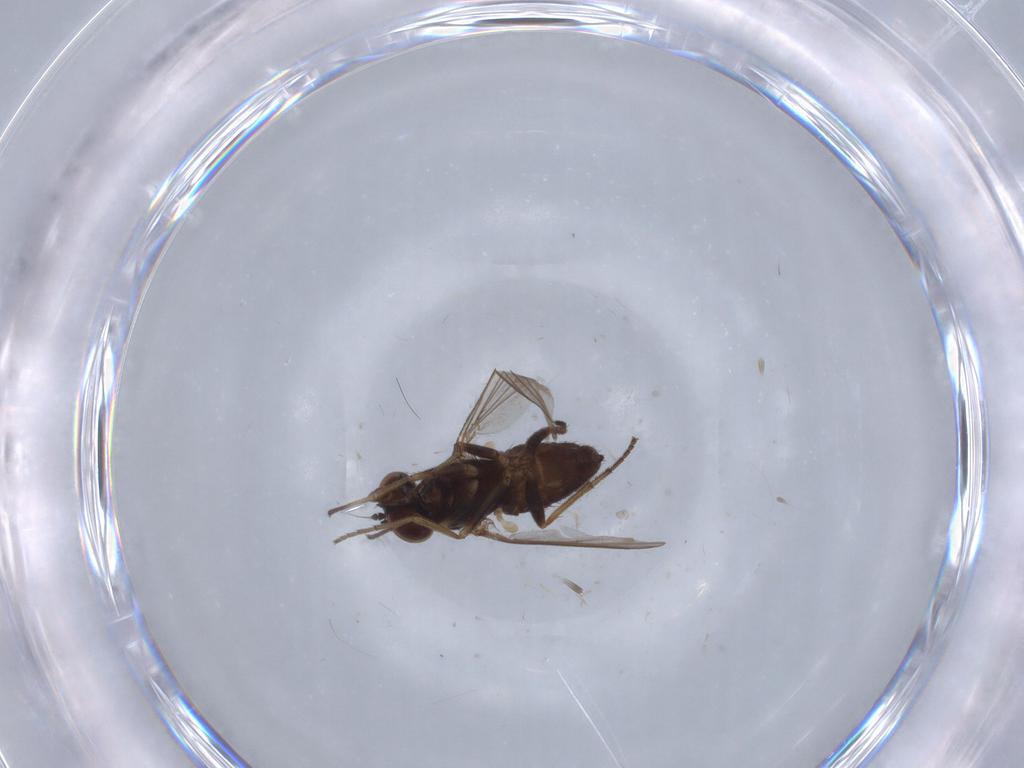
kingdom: Animalia
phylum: Arthropoda
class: Insecta
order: Diptera
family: Dolichopodidae
